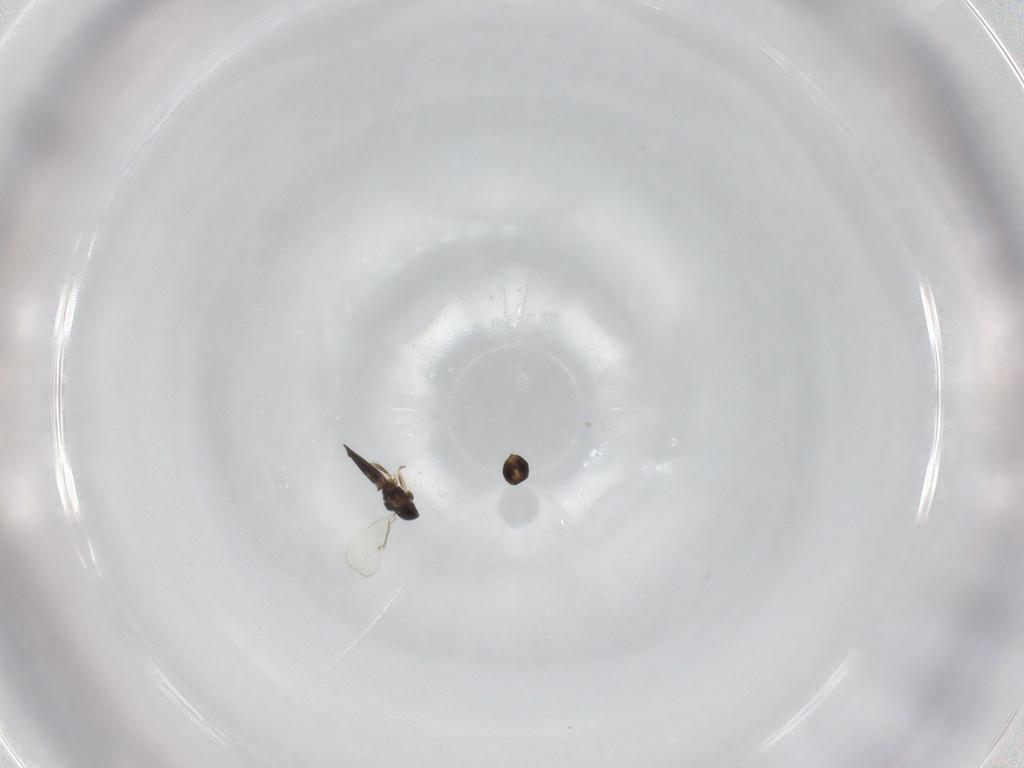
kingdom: Animalia
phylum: Arthropoda
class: Insecta
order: Hymenoptera
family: Eulophidae
